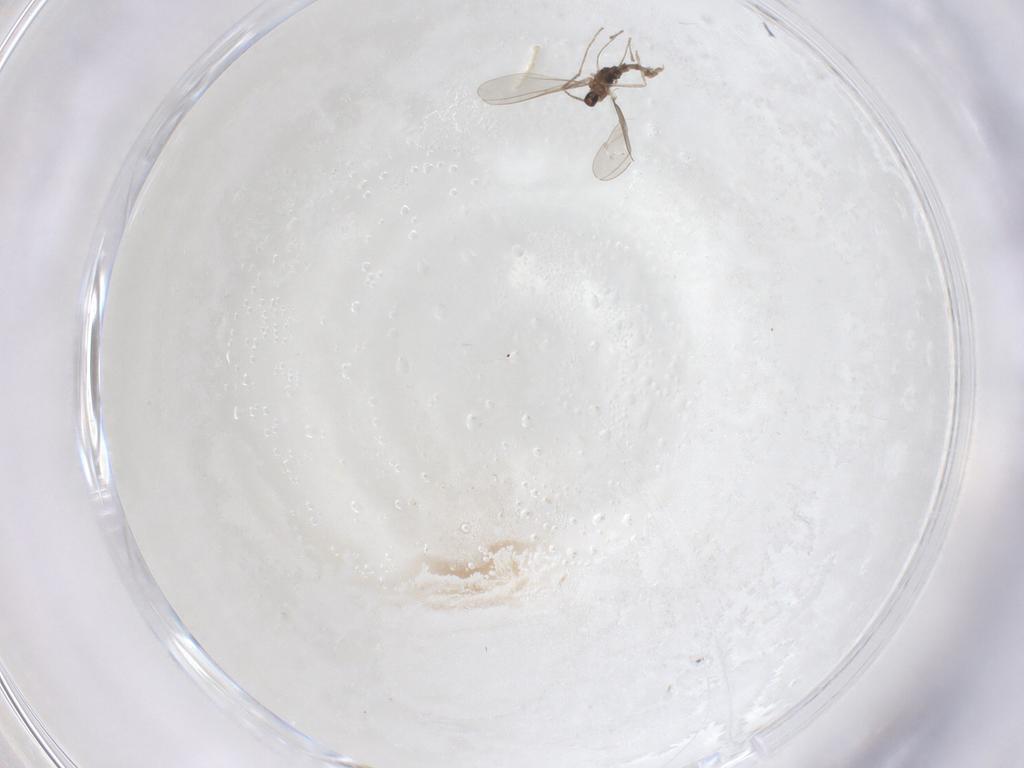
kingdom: Animalia
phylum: Arthropoda
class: Insecta
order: Diptera
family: Cecidomyiidae
